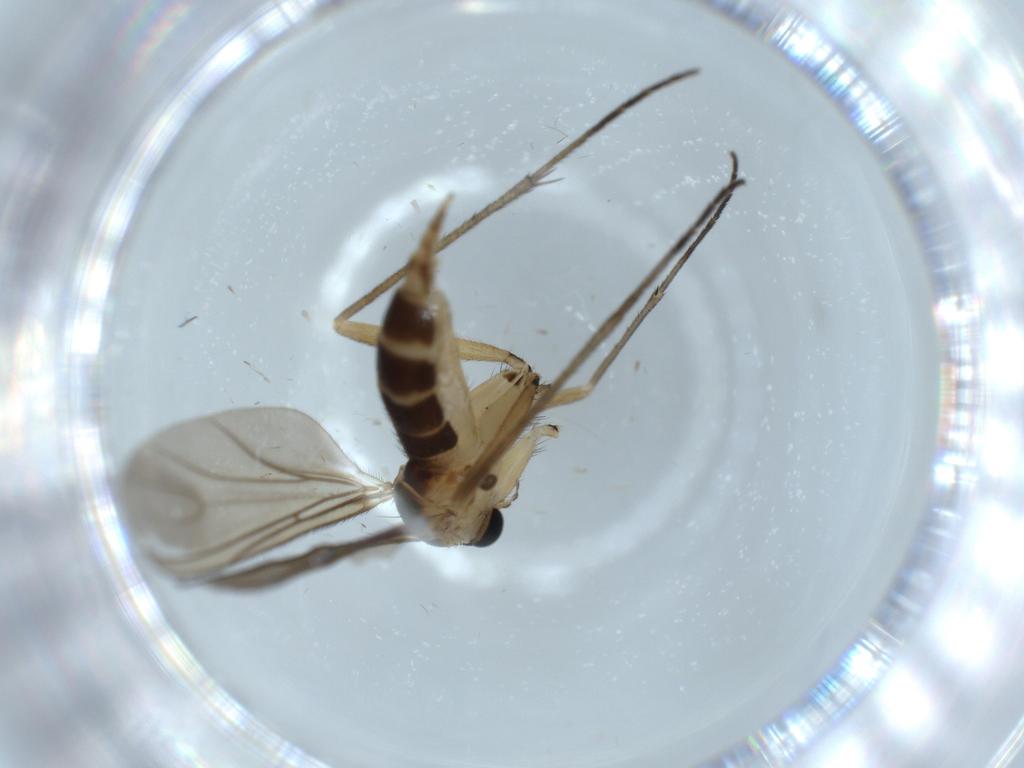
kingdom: Animalia
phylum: Arthropoda
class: Insecta
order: Diptera
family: Sciaridae
